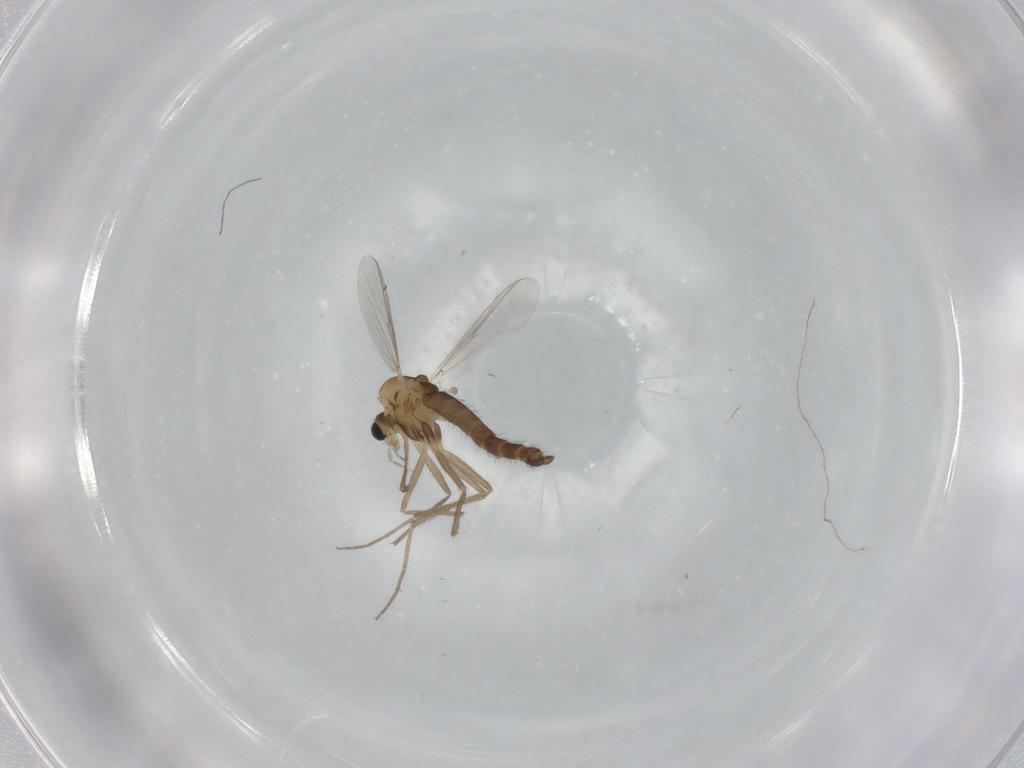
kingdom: Animalia
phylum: Arthropoda
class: Insecta
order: Diptera
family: Chironomidae
